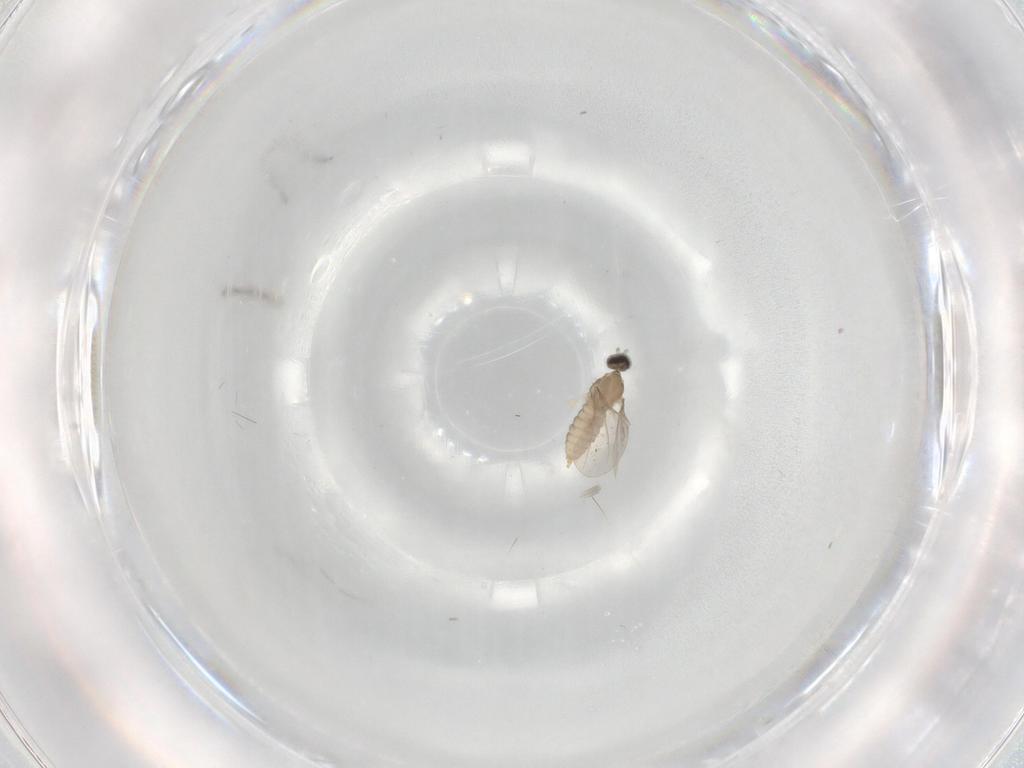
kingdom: Animalia
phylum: Arthropoda
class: Insecta
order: Diptera
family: Cecidomyiidae
